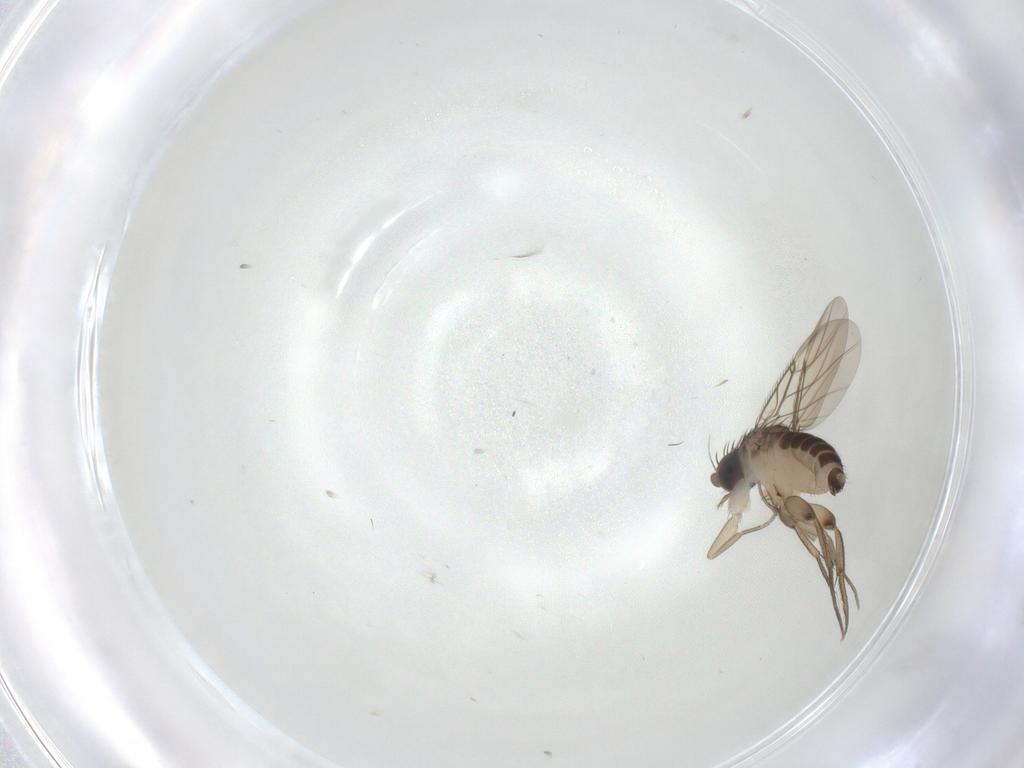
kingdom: Animalia
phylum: Arthropoda
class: Insecta
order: Diptera
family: Phoridae
